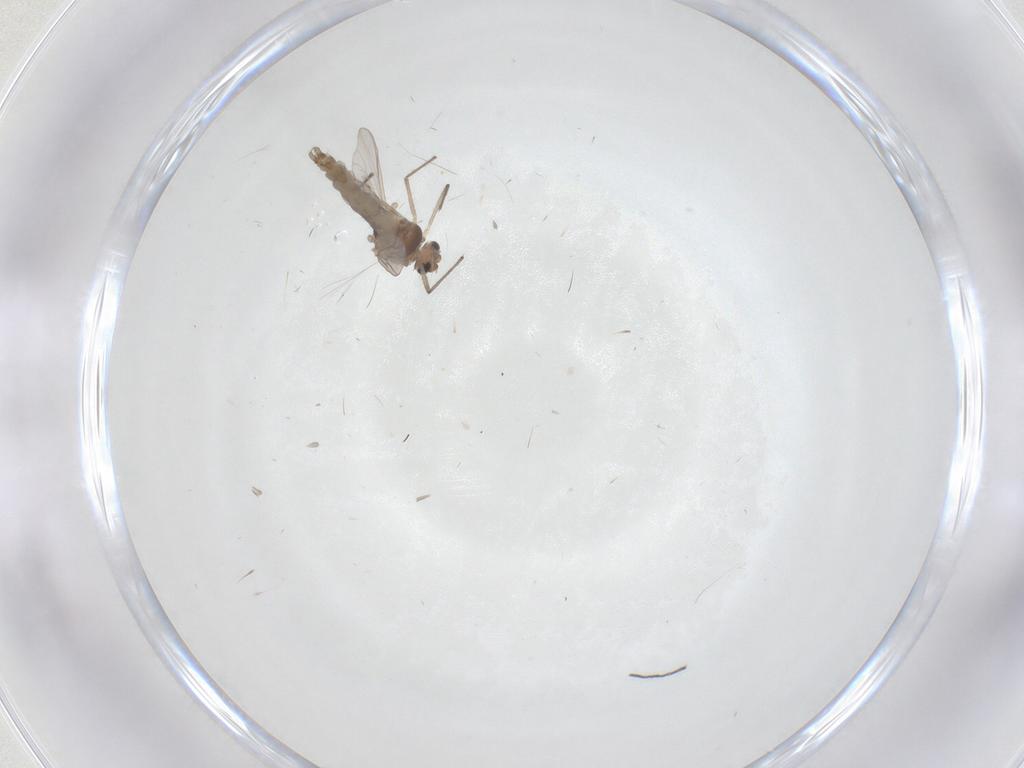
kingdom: Animalia
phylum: Arthropoda
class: Insecta
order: Diptera
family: Chironomidae
